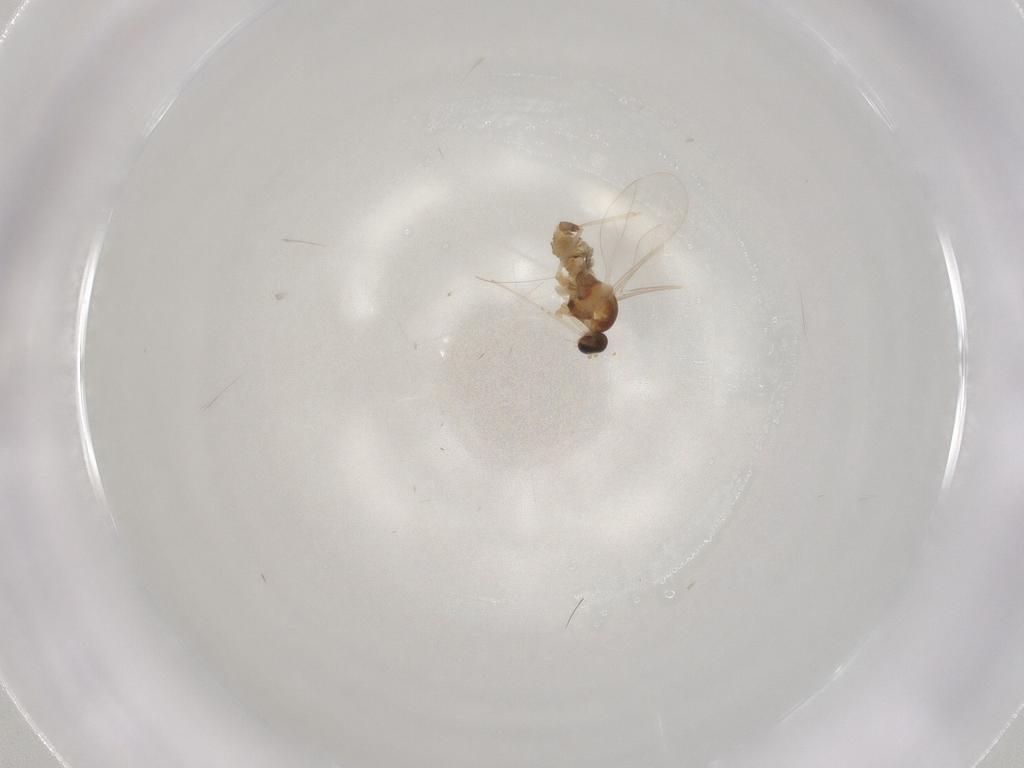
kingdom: Animalia
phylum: Arthropoda
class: Insecta
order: Diptera
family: Cecidomyiidae
